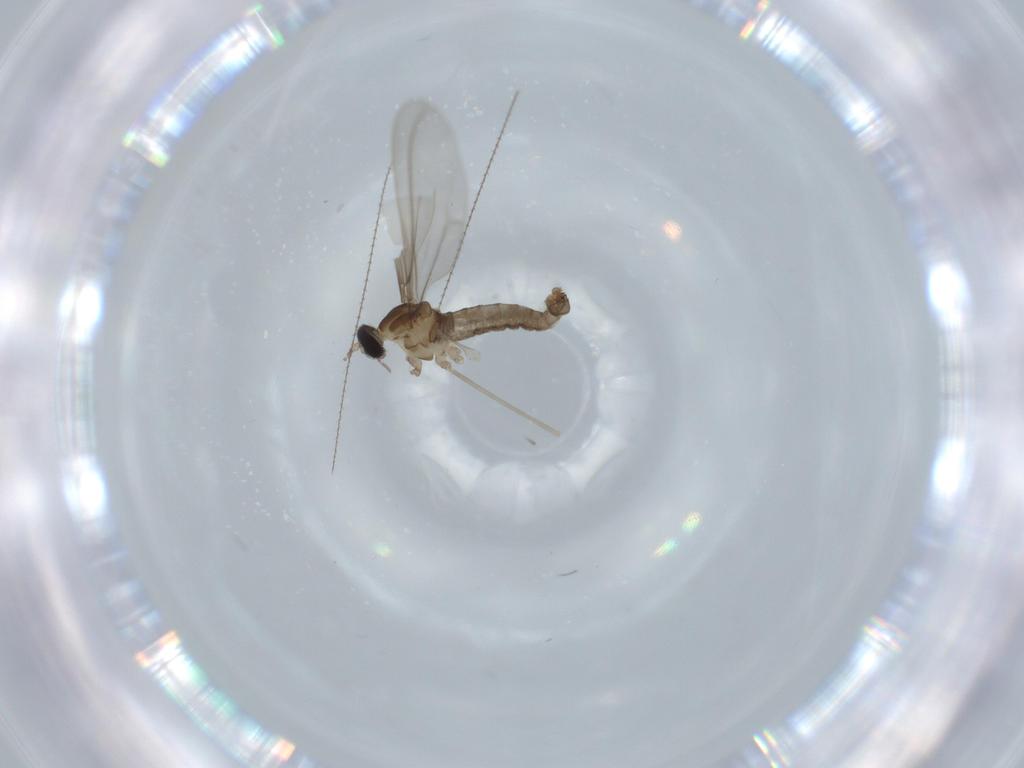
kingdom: Animalia
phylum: Arthropoda
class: Insecta
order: Diptera
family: Cecidomyiidae
